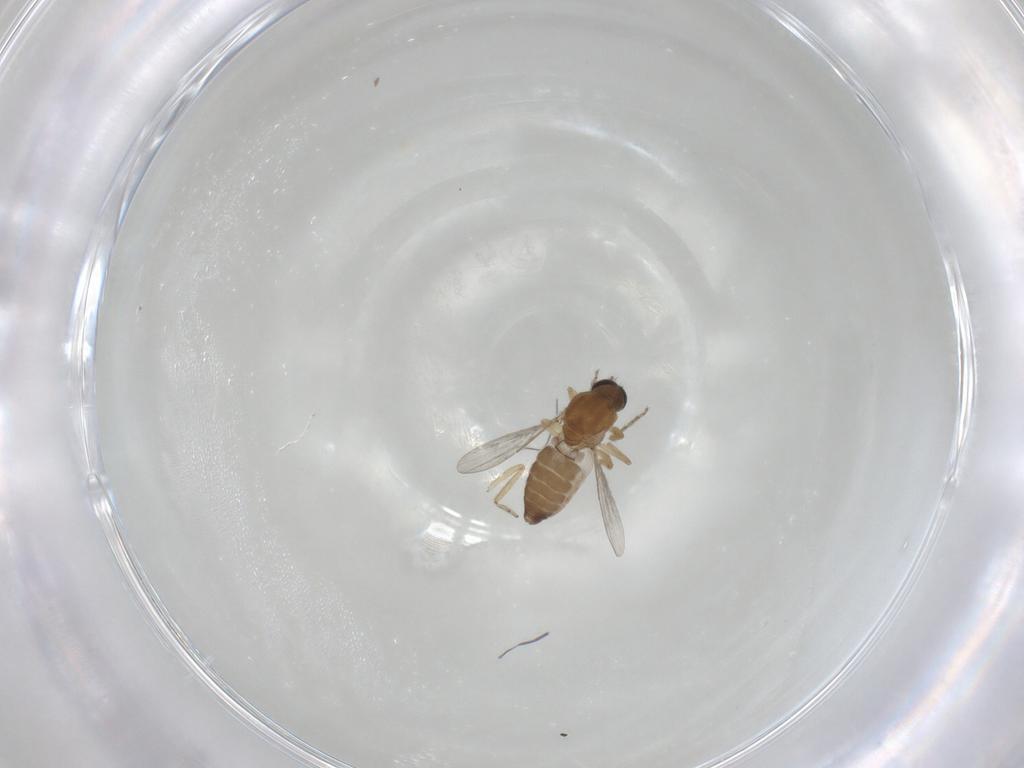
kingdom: Animalia
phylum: Arthropoda
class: Insecta
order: Diptera
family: Ceratopogonidae
